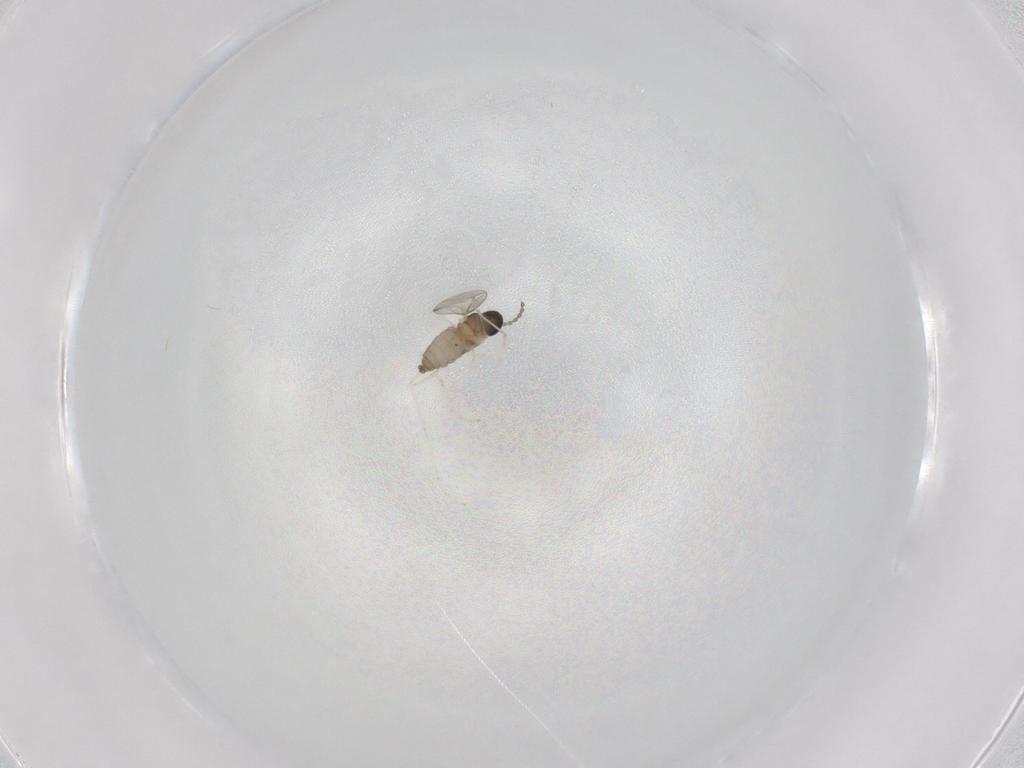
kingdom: Animalia
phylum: Arthropoda
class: Insecta
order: Diptera
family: Cecidomyiidae
